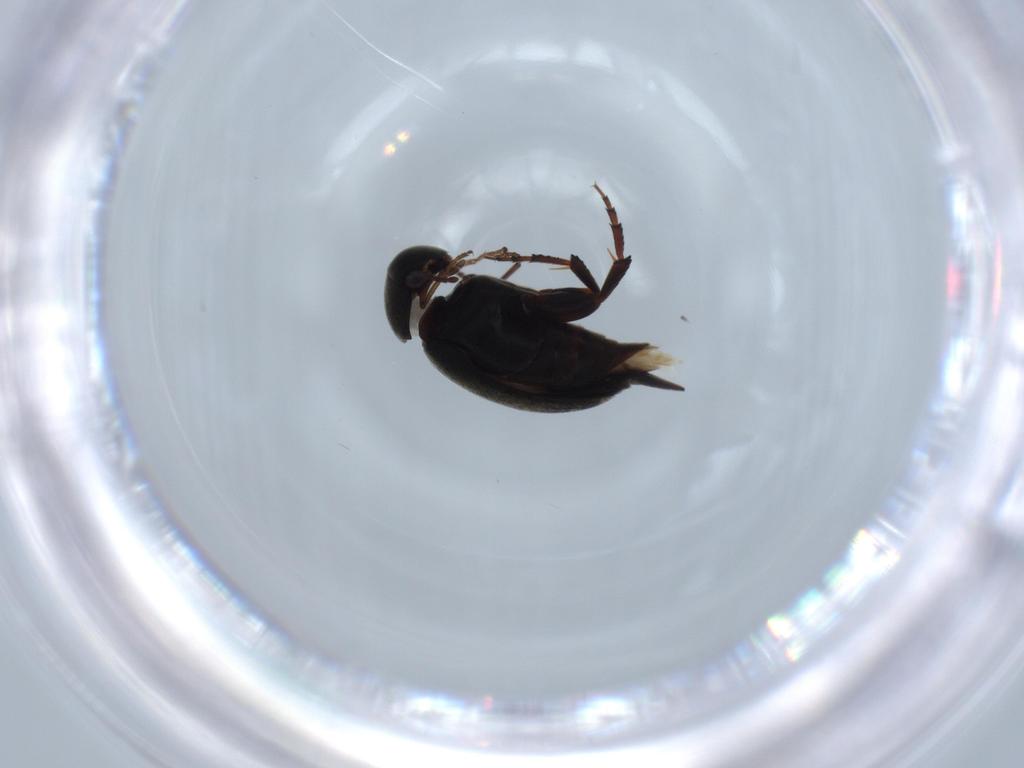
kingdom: Animalia
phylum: Arthropoda
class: Insecta
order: Coleoptera
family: Mordellidae
